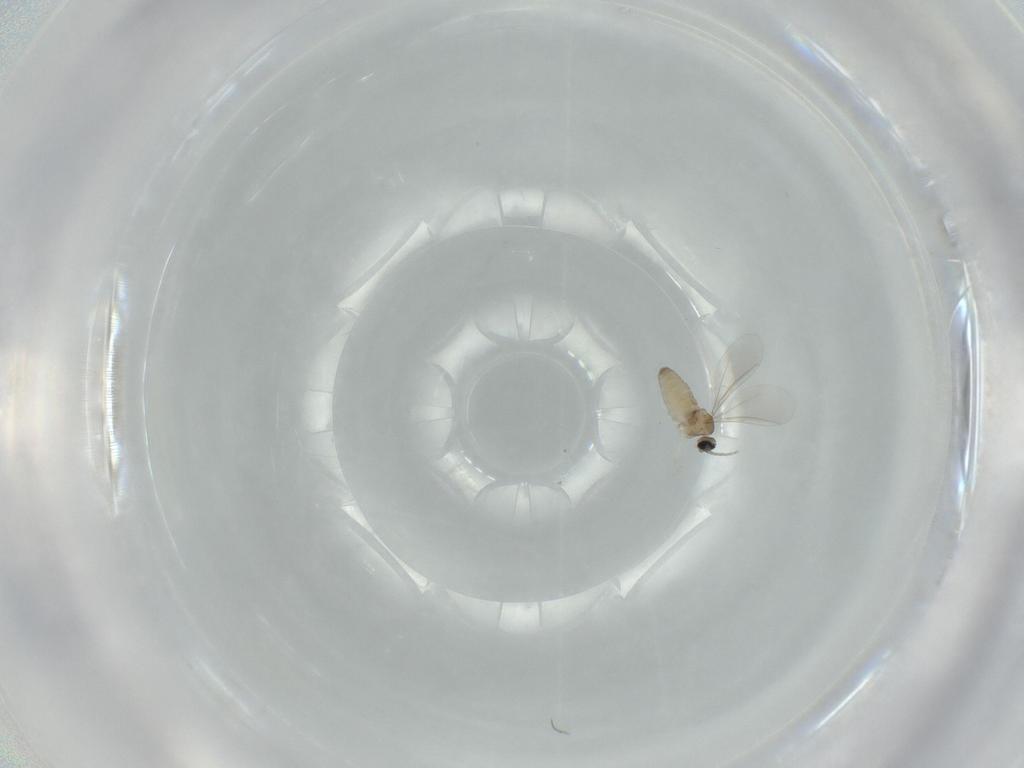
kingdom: Animalia
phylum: Arthropoda
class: Insecta
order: Diptera
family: Cecidomyiidae
